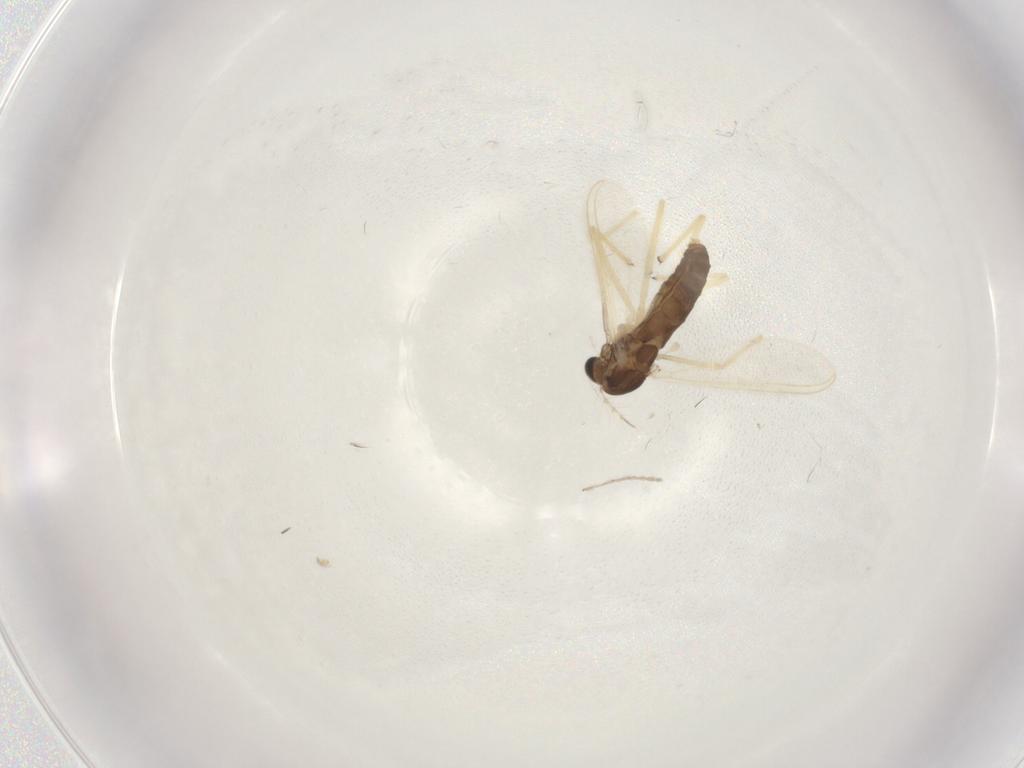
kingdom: Animalia
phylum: Arthropoda
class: Insecta
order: Diptera
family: Chironomidae
